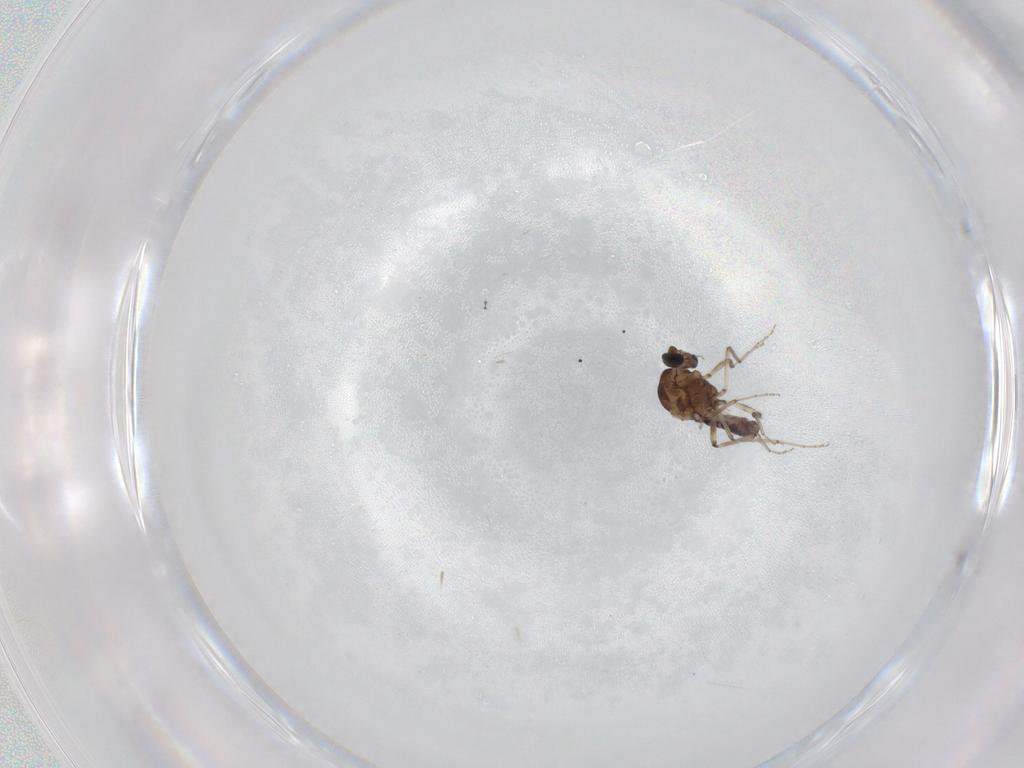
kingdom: Animalia
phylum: Arthropoda
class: Insecta
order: Diptera
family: Ceratopogonidae
